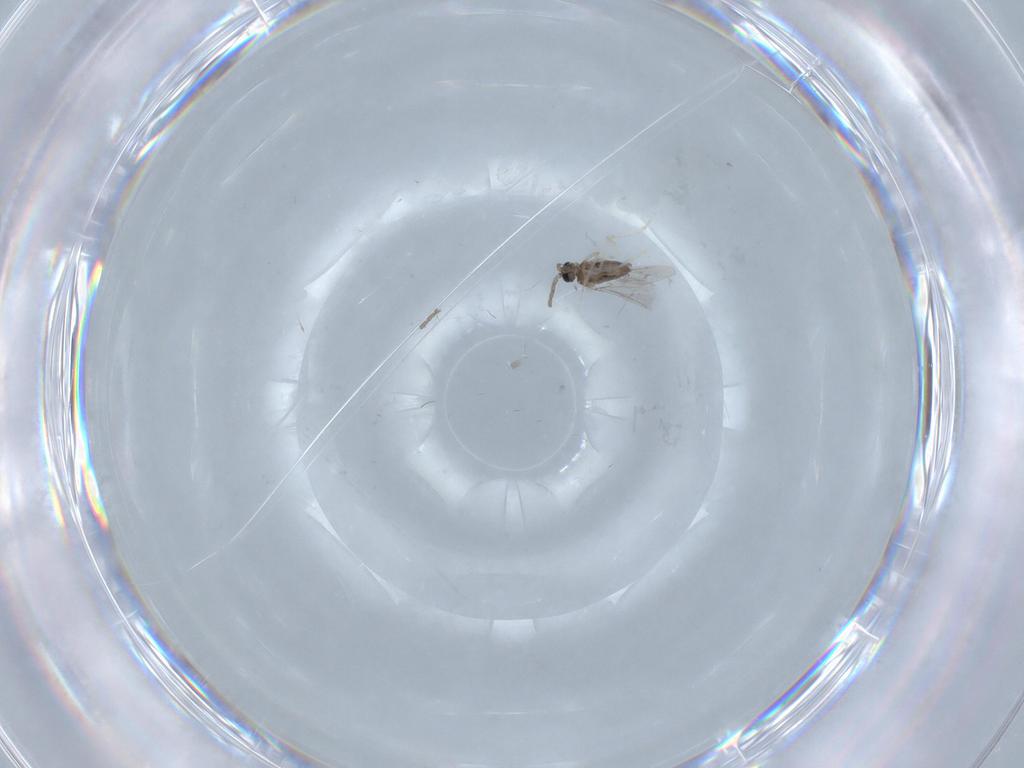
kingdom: Animalia
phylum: Arthropoda
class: Insecta
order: Diptera
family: Cecidomyiidae
